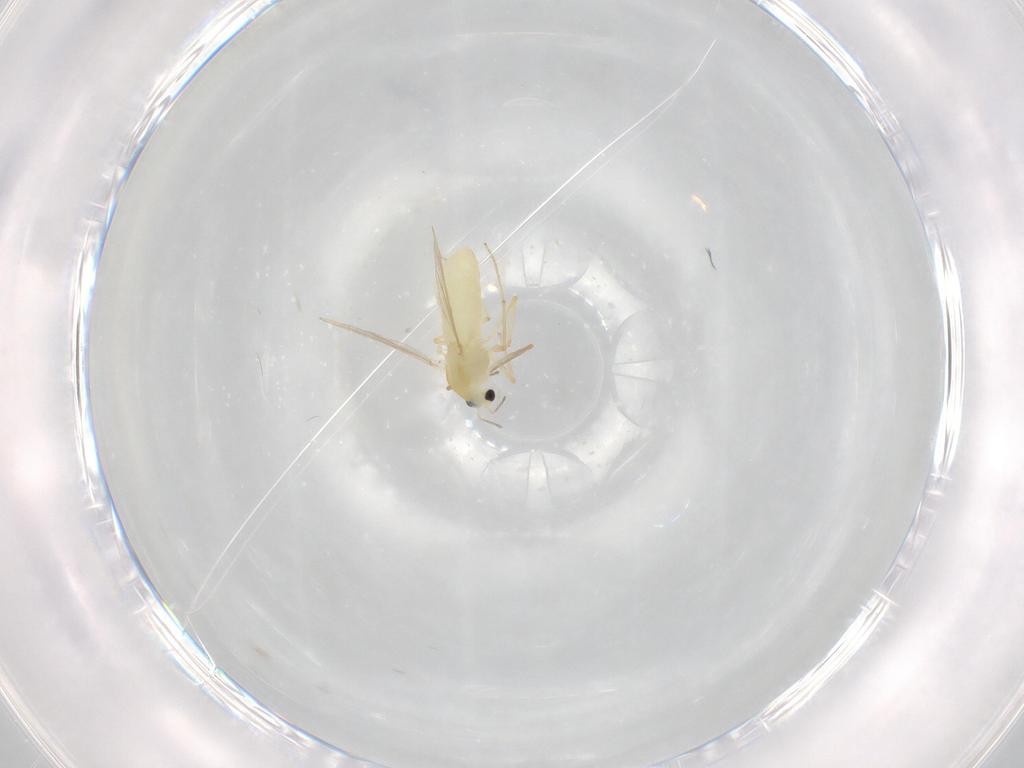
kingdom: Animalia
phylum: Arthropoda
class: Insecta
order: Diptera
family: Chironomidae
